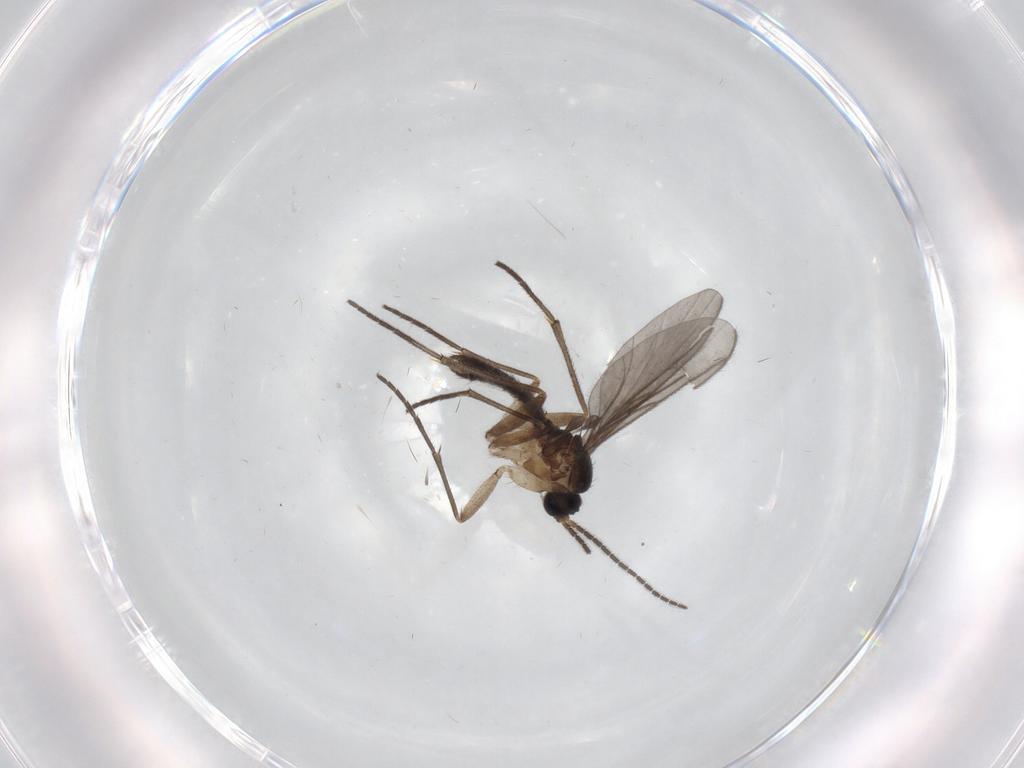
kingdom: Animalia
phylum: Arthropoda
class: Insecta
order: Diptera
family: Sciaridae
